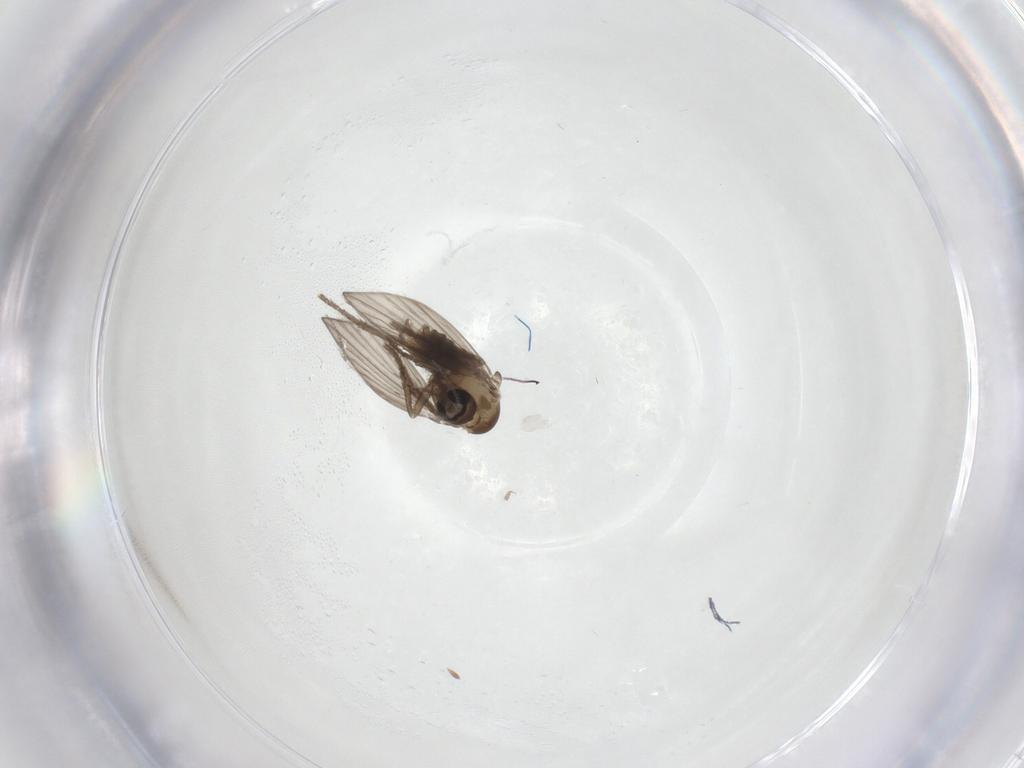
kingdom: Animalia
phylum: Arthropoda
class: Insecta
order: Diptera
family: Psychodidae
